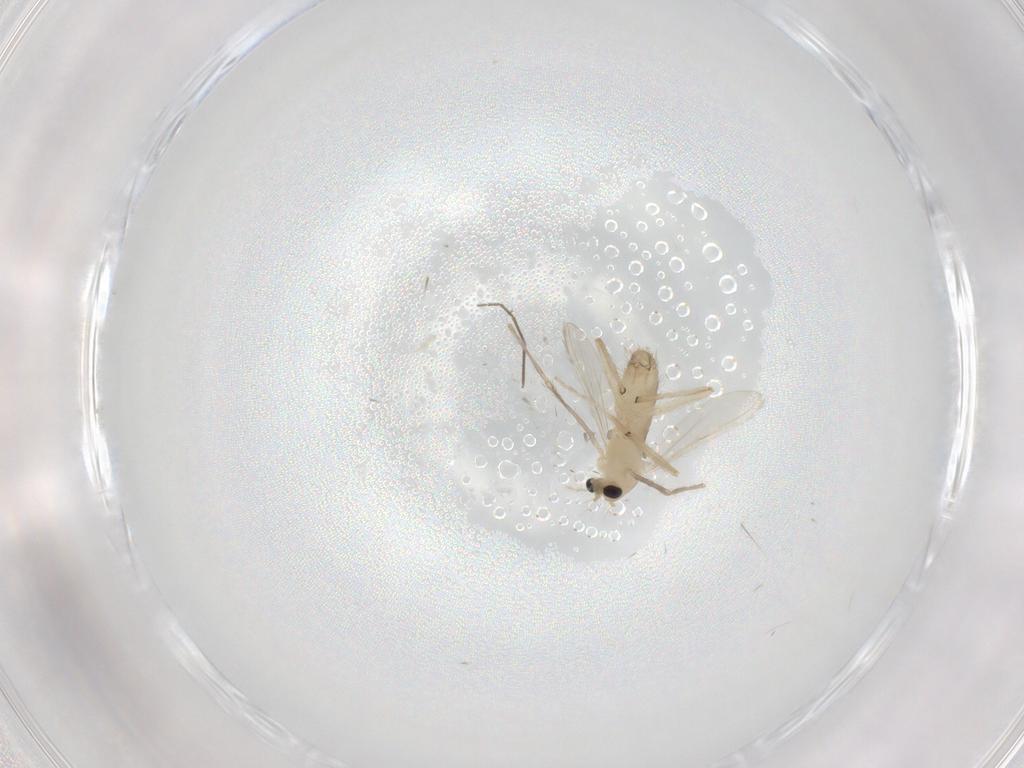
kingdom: Animalia
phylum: Arthropoda
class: Insecta
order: Diptera
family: Chironomidae
